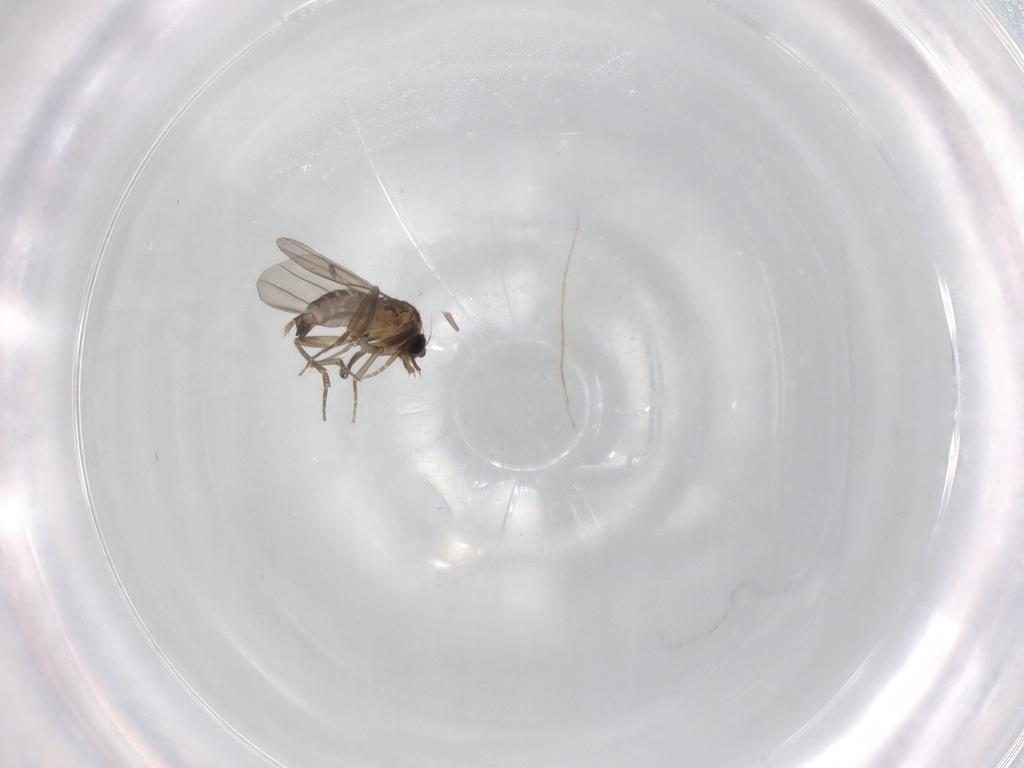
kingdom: Animalia
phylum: Arthropoda
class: Insecta
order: Diptera
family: Phoridae
